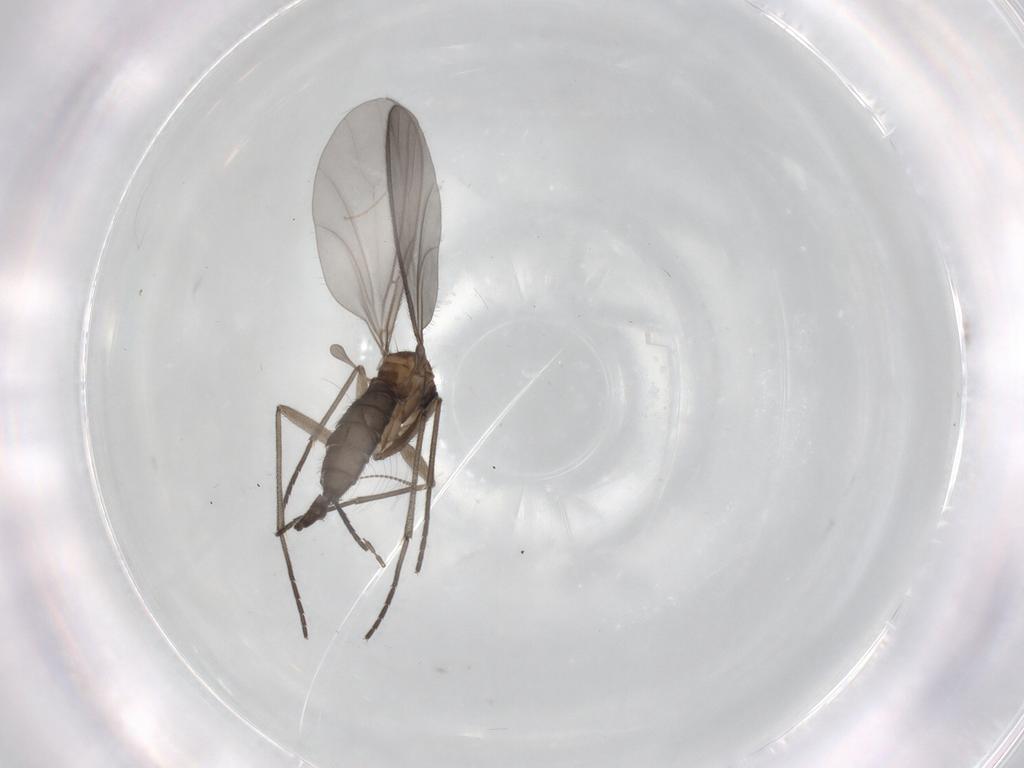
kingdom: Animalia
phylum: Arthropoda
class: Insecta
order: Diptera
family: Sciaridae
